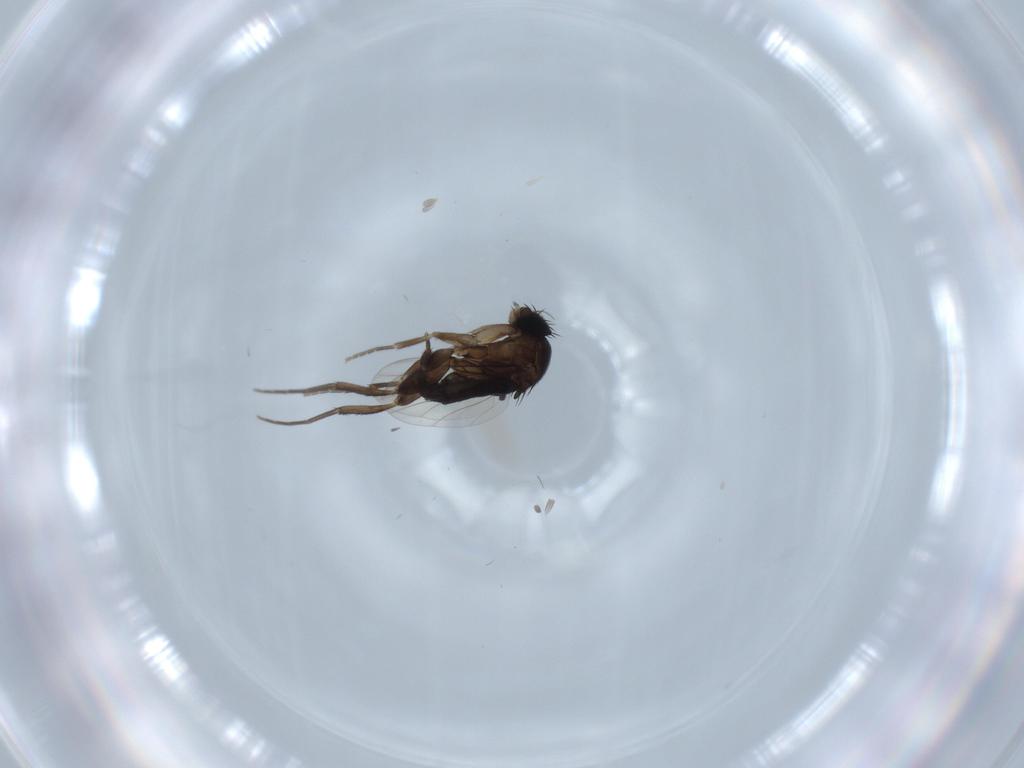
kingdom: Animalia
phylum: Arthropoda
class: Insecta
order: Diptera
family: Phoridae
